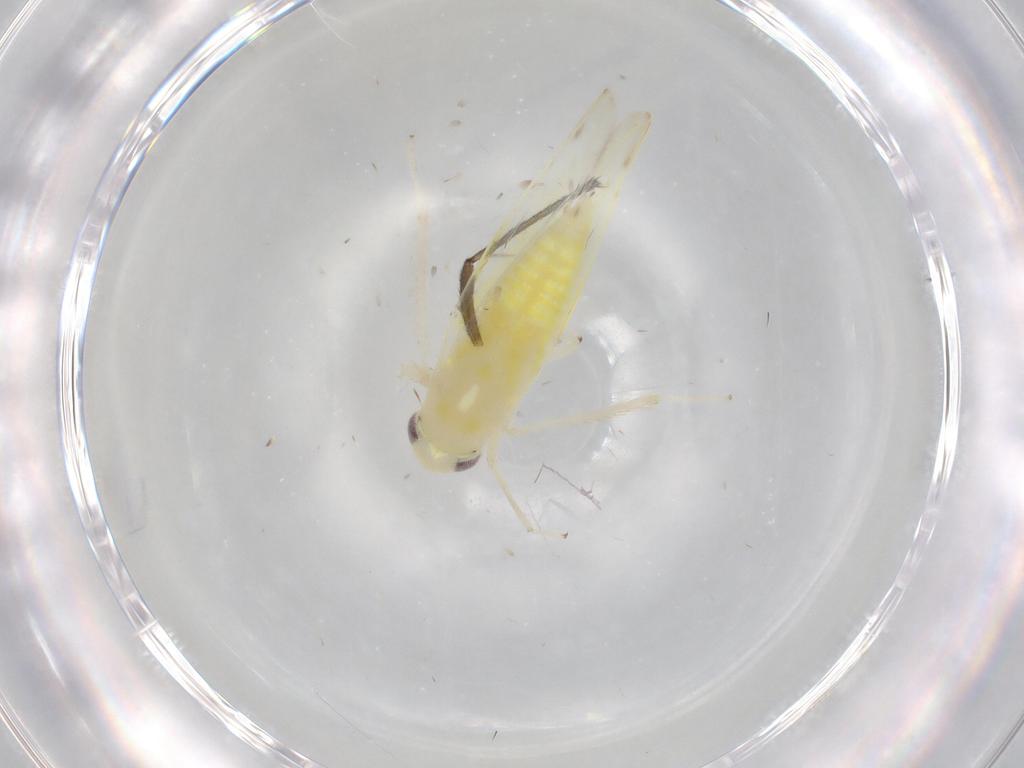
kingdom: Animalia
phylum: Arthropoda
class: Insecta
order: Hemiptera
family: Cicadellidae
